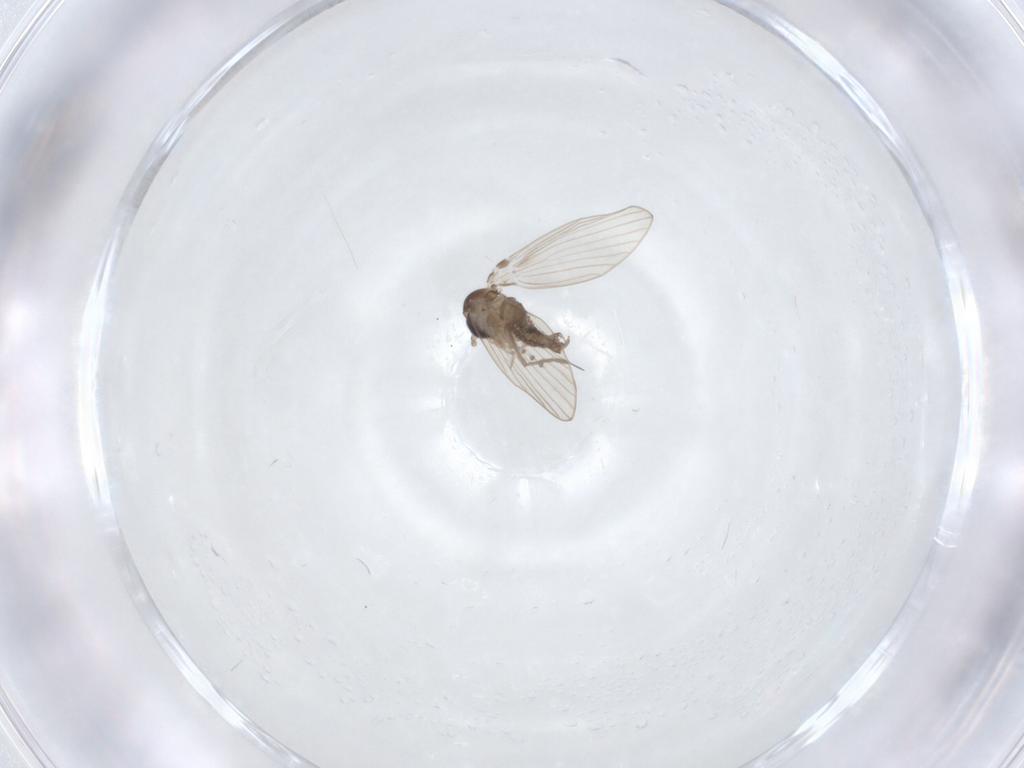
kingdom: Animalia
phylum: Arthropoda
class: Insecta
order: Diptera
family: Psychodidae
